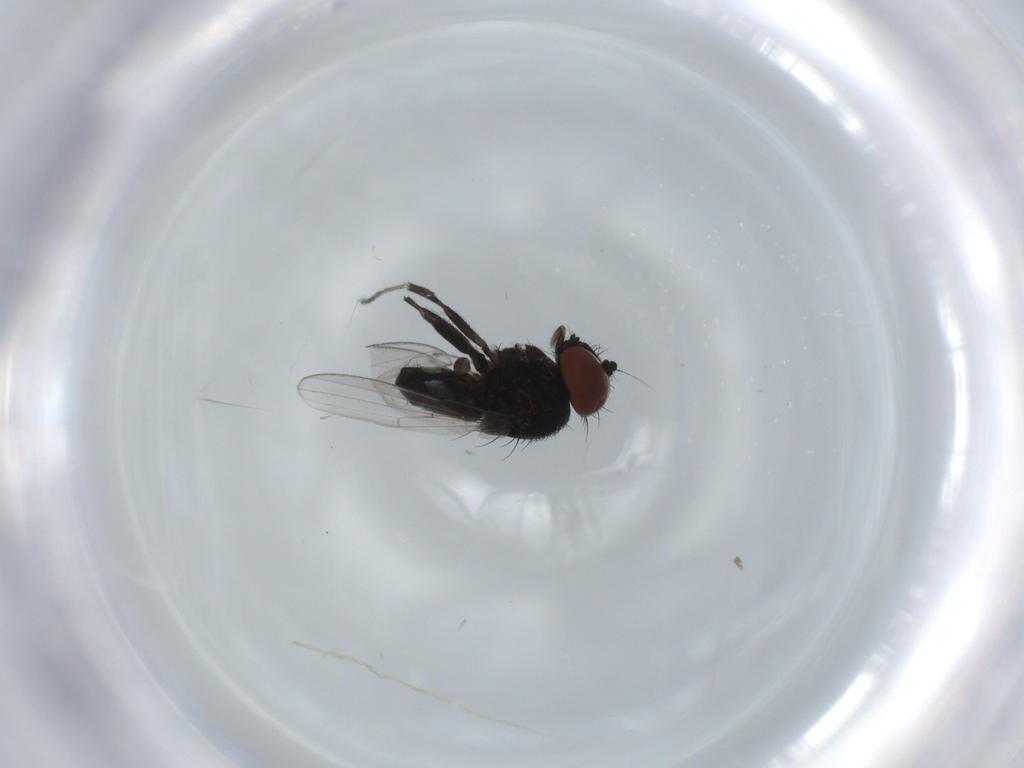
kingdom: Animalia
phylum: Arthropoda
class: Insecta
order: Diptera
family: Milichiidae
